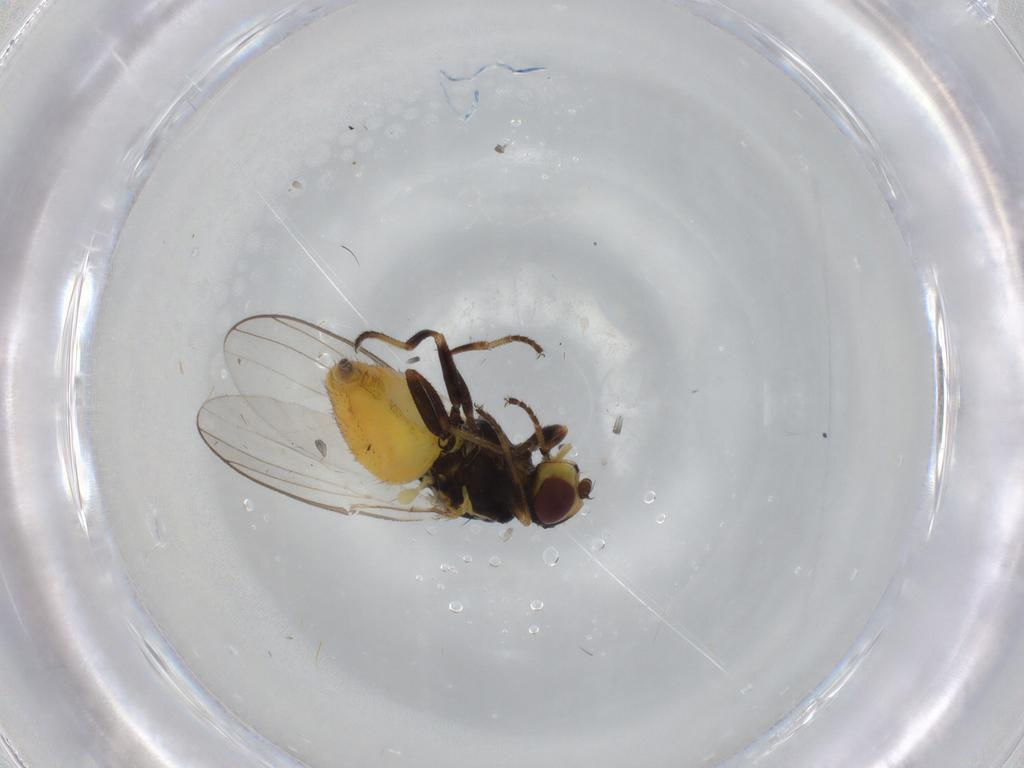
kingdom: Animalia
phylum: Arthropoda
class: Insecta
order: Diptera
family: Chloropidae
